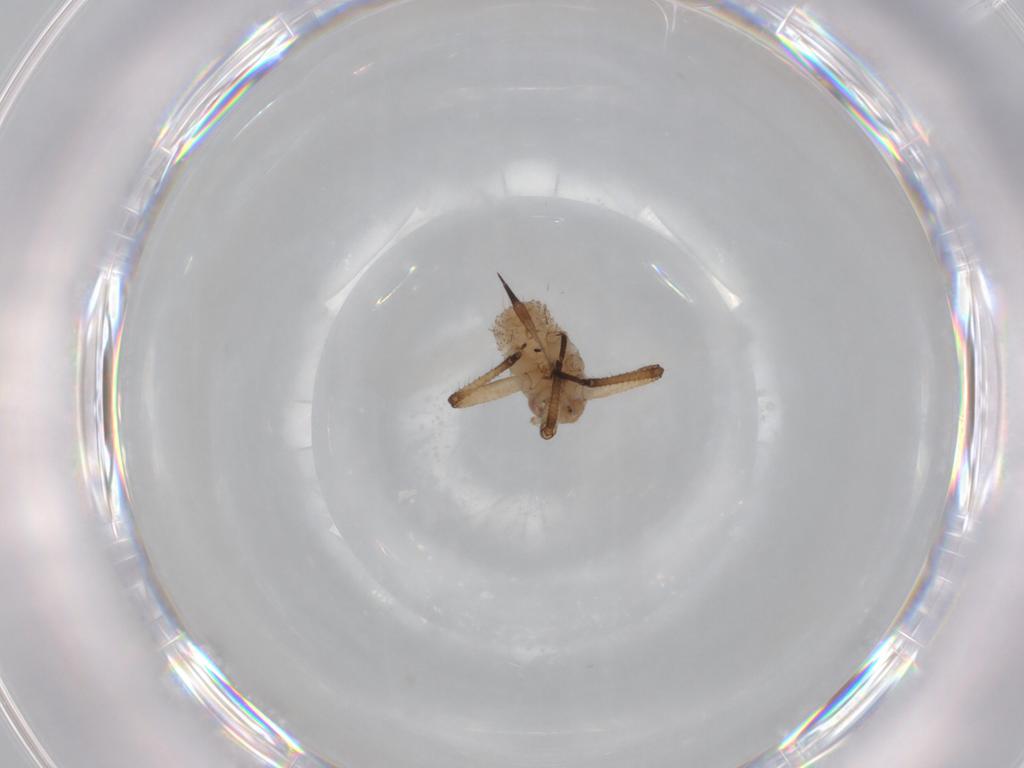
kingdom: Animalia
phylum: Arthropoda
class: Insecta
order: Hemiptera
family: Aphididae
